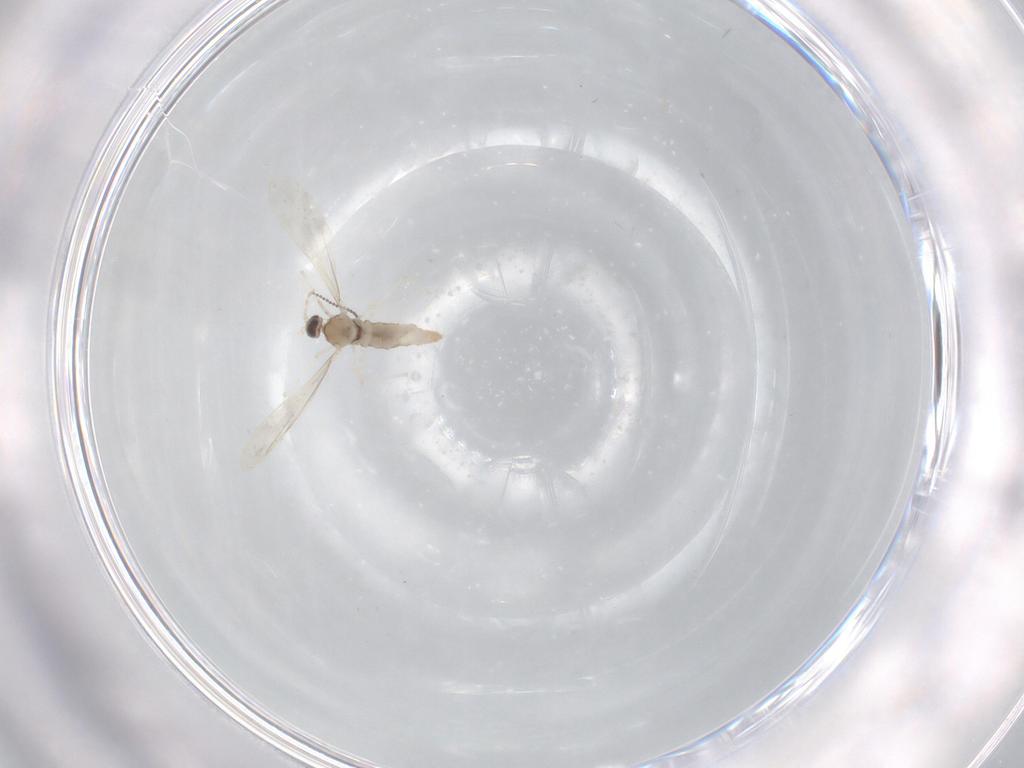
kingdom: Animalia
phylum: Arthropoda
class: Insecta
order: Diptera
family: Cecidomyiidae
